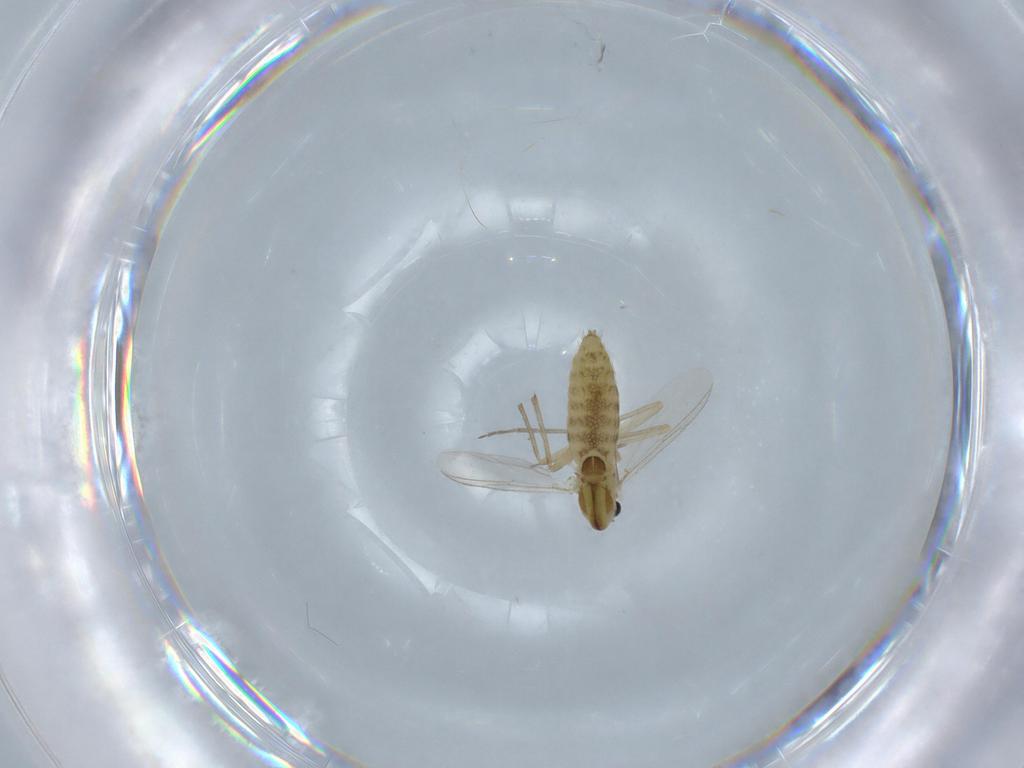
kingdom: Animalia
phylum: Arthropoda
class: Insecta
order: Diptera
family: Chironomidae
